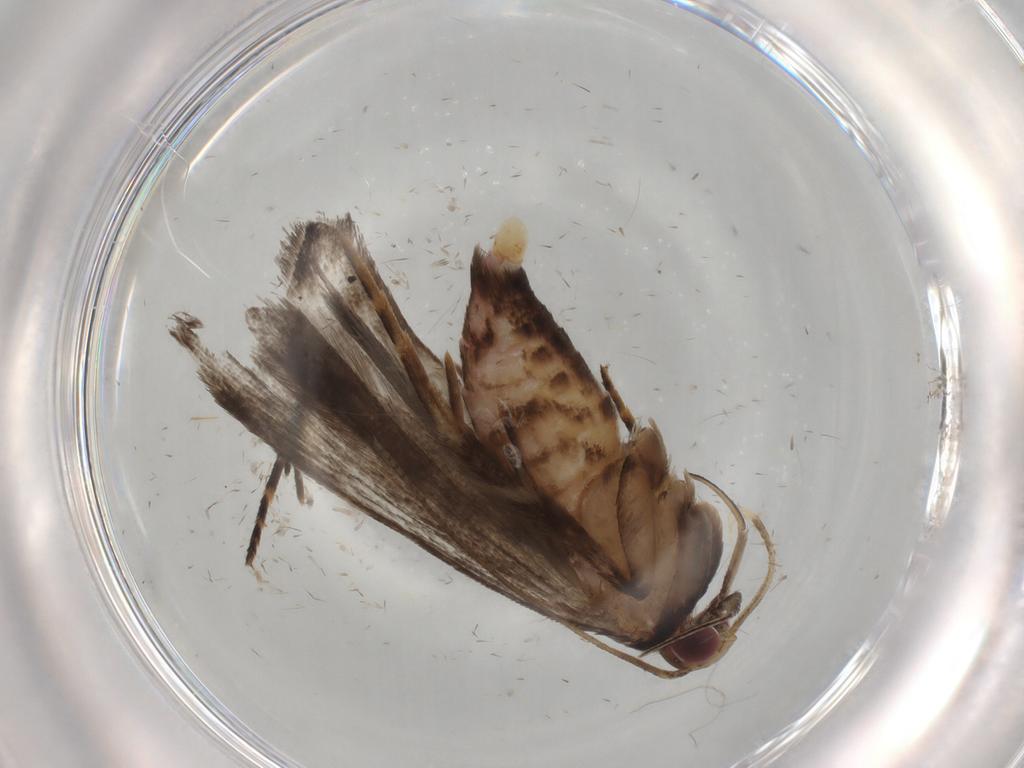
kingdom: Animalia
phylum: Arthropoda
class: Insecta
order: Lepidoptera
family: Gelechiidae
